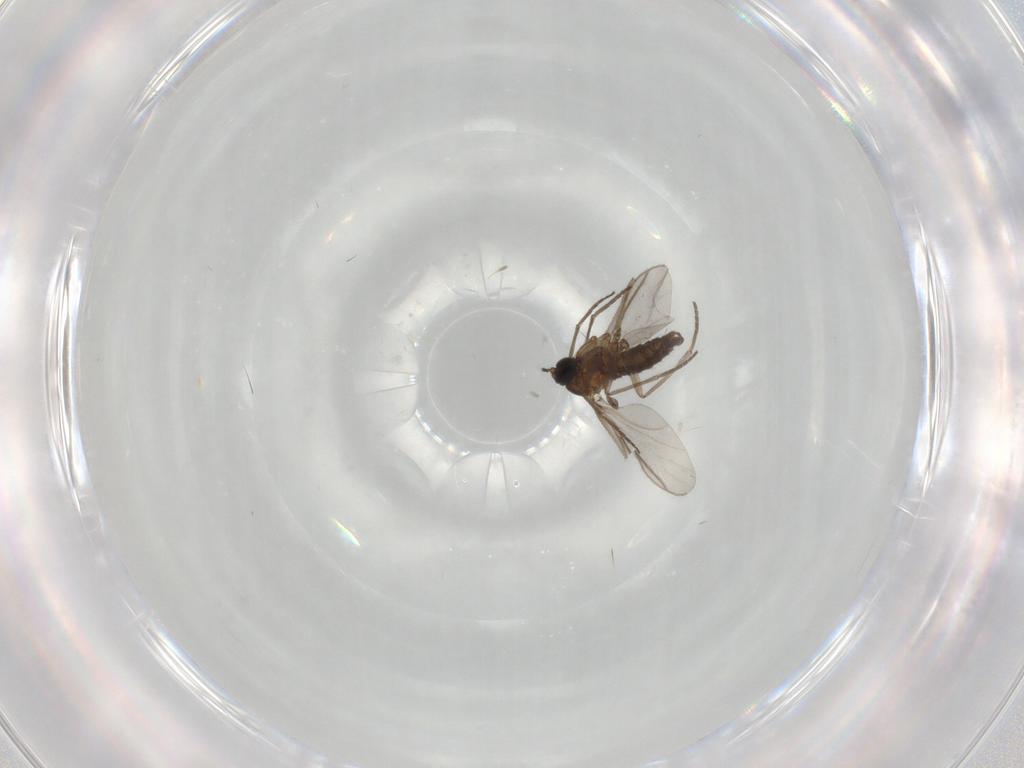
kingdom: Animalia
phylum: Arthropoda
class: Insecta
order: Diptera
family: Sciaridae
